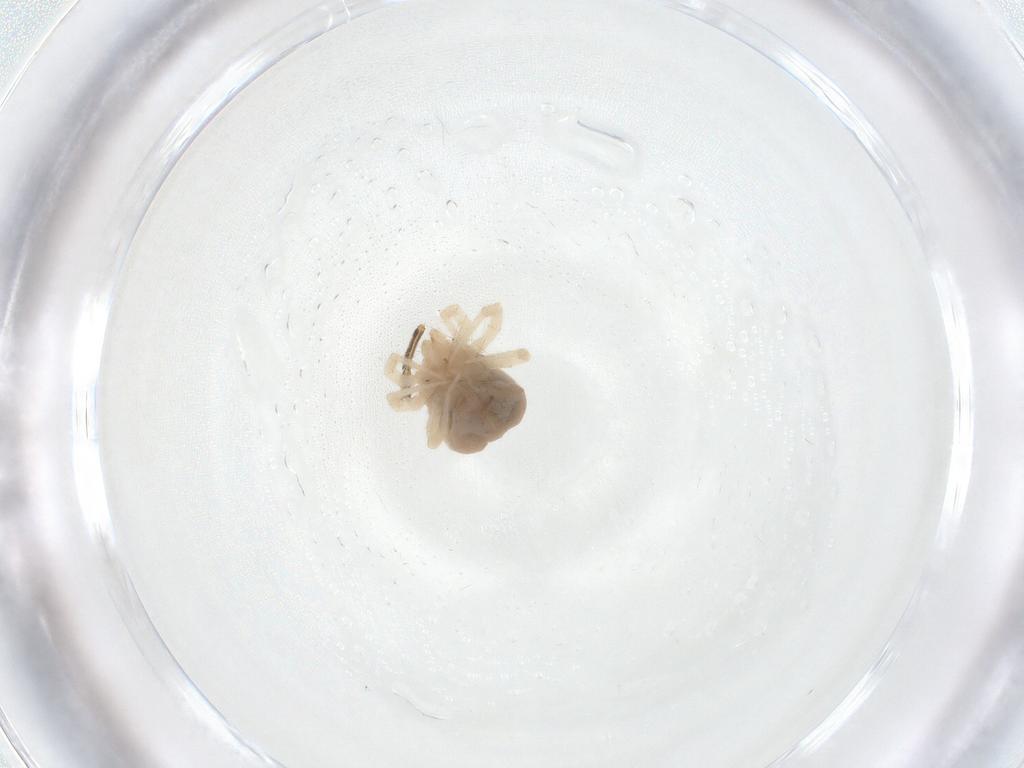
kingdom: Animalia
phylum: Arthropoda
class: Arachnida
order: Trombidiformes
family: Anystidae
